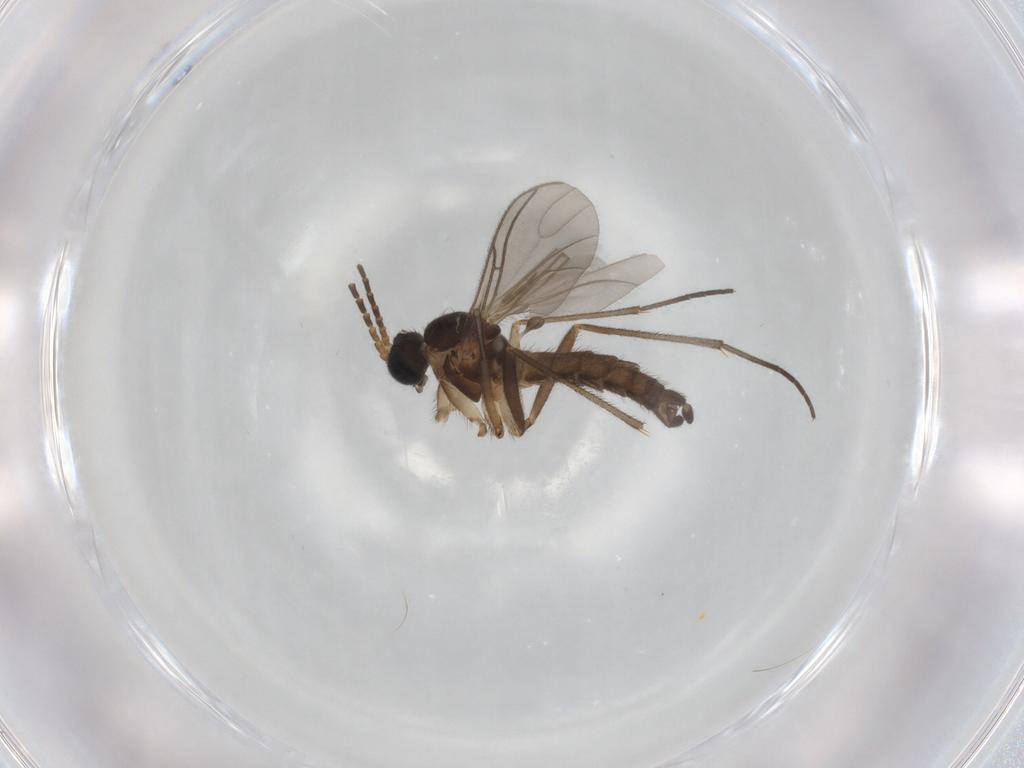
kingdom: Animalia
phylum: Arthropoda
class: Insecta
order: Diptera
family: Sciaridae
